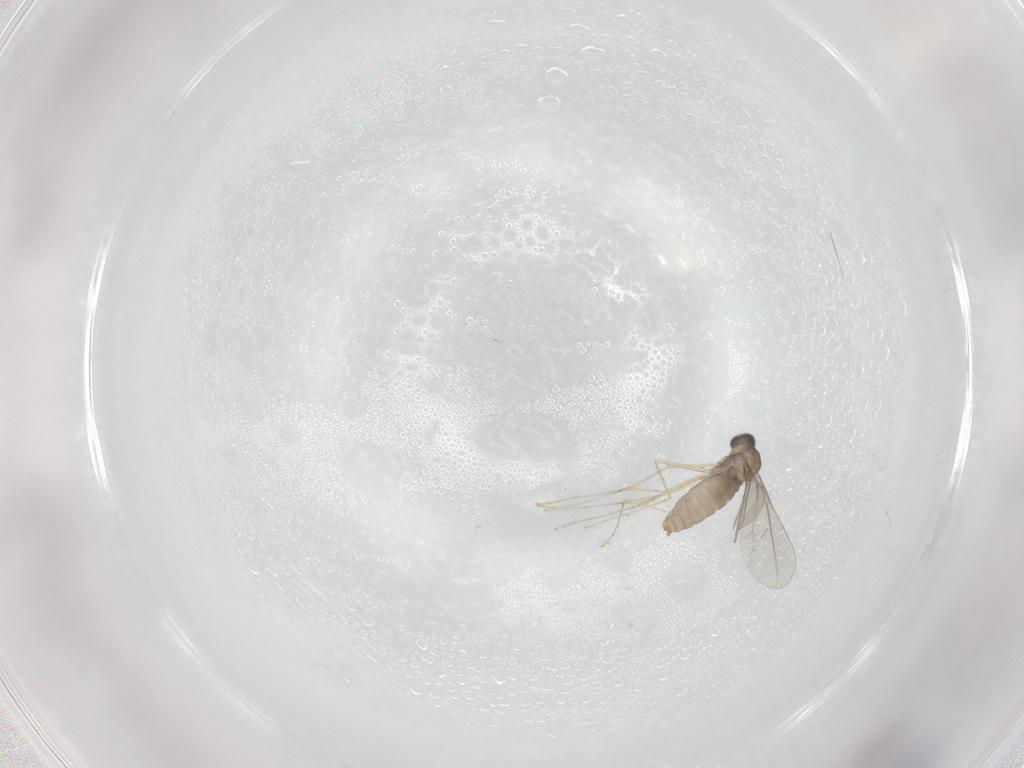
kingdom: Animalia
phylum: Arthropoda
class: Insecta
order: Diptera
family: Cecidomyiidae
